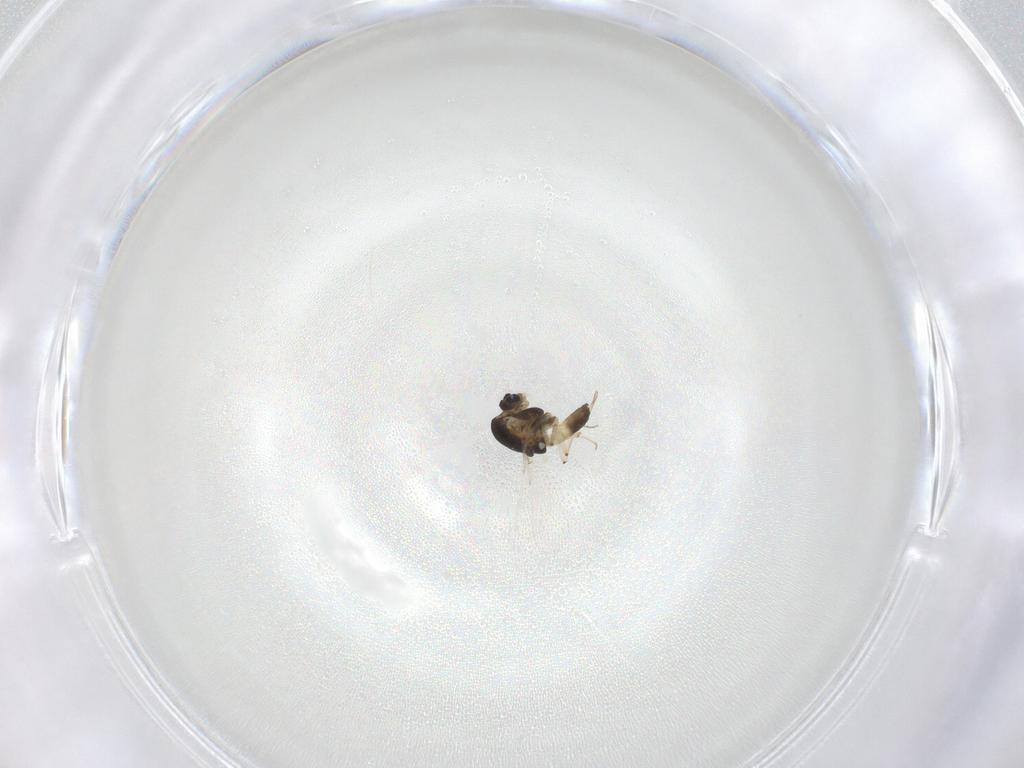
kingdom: Animalia
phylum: Arthropoda
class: Insecta
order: Diptera
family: Chironomidae
